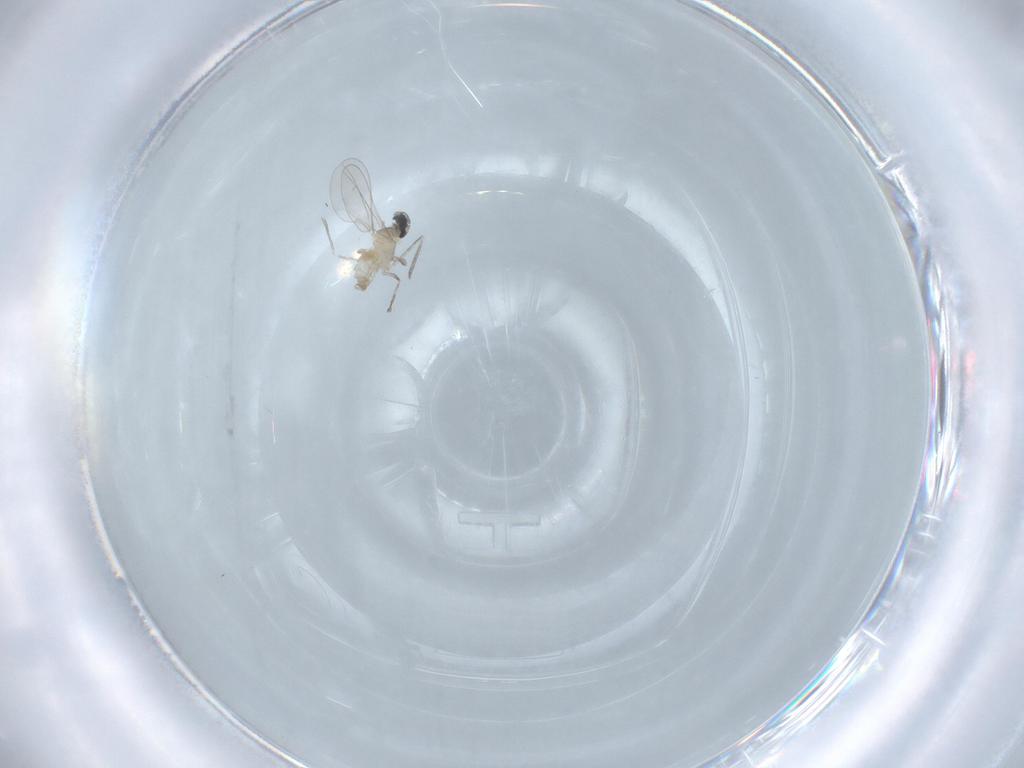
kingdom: Animalia
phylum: Arthropoda
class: Insecta
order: Diptera
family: Cecidomyiidae
